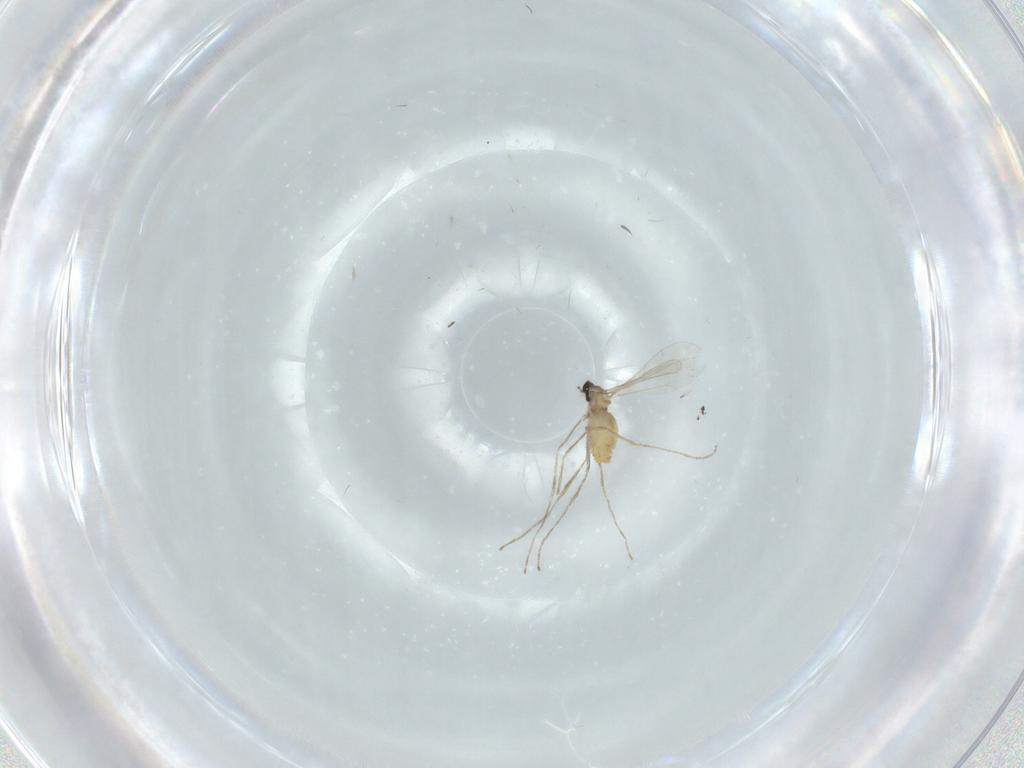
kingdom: Animalia
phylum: Arthropoda
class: Insecta
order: Diptera
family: Cecidomyiidae
